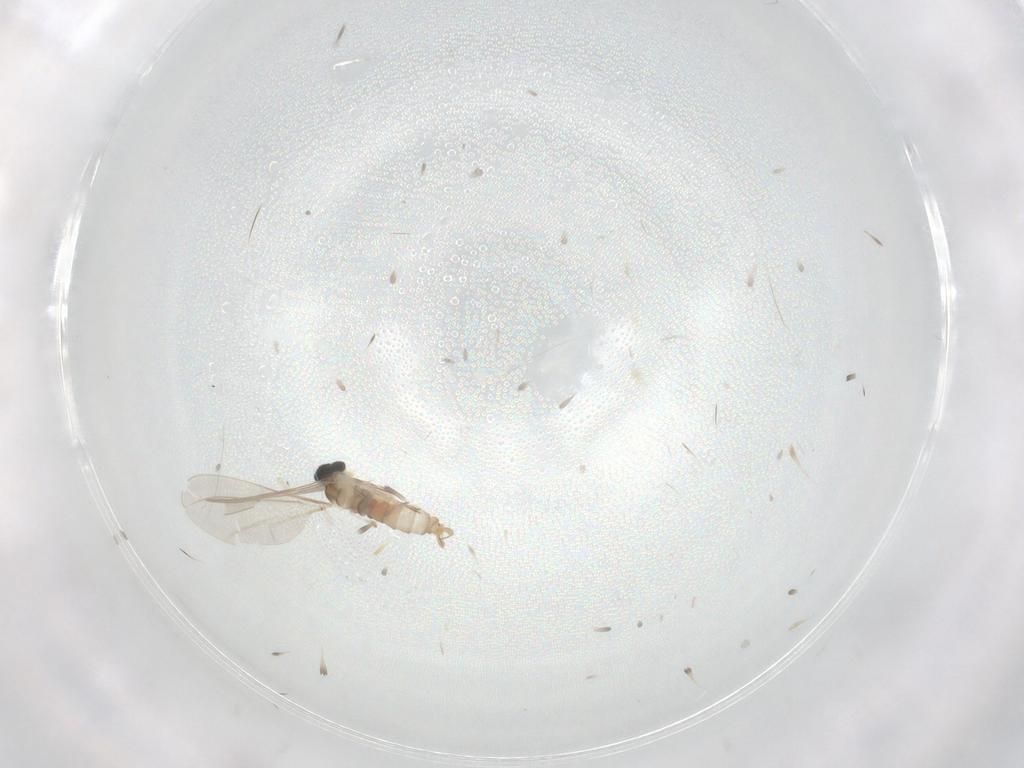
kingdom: Animalia
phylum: Arthropoda
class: Insecta
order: Diptera
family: Cecidomyiidae
